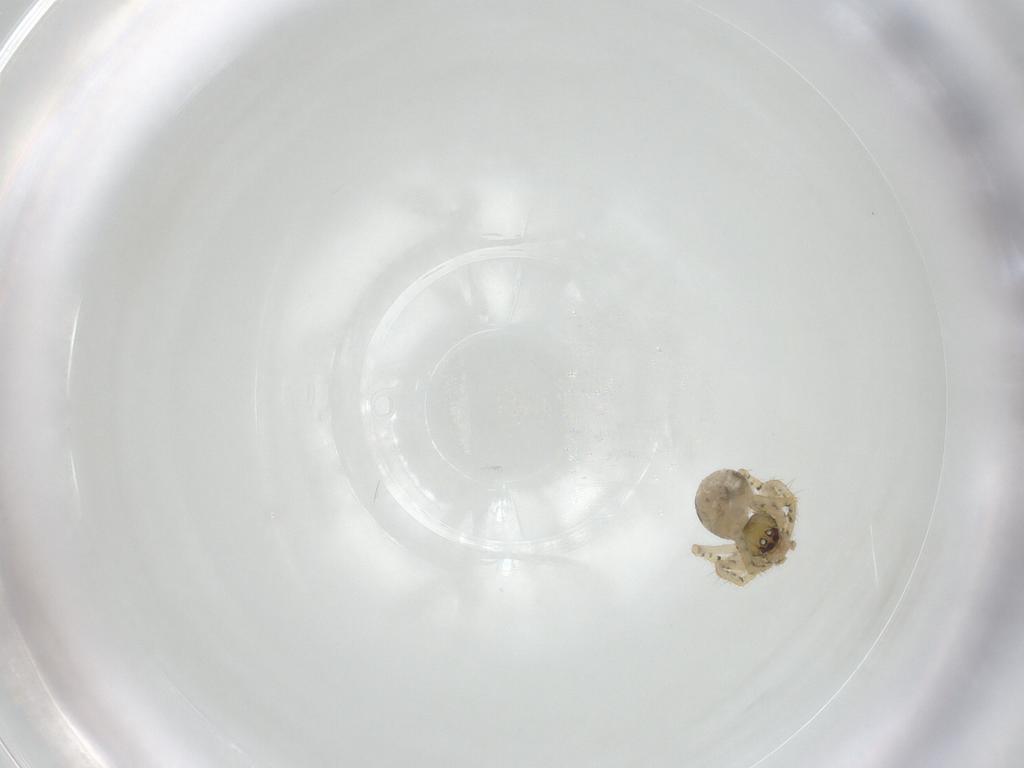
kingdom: Animalia
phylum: Arthropoda
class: Arachnida
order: Araneae
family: Theridiidae
